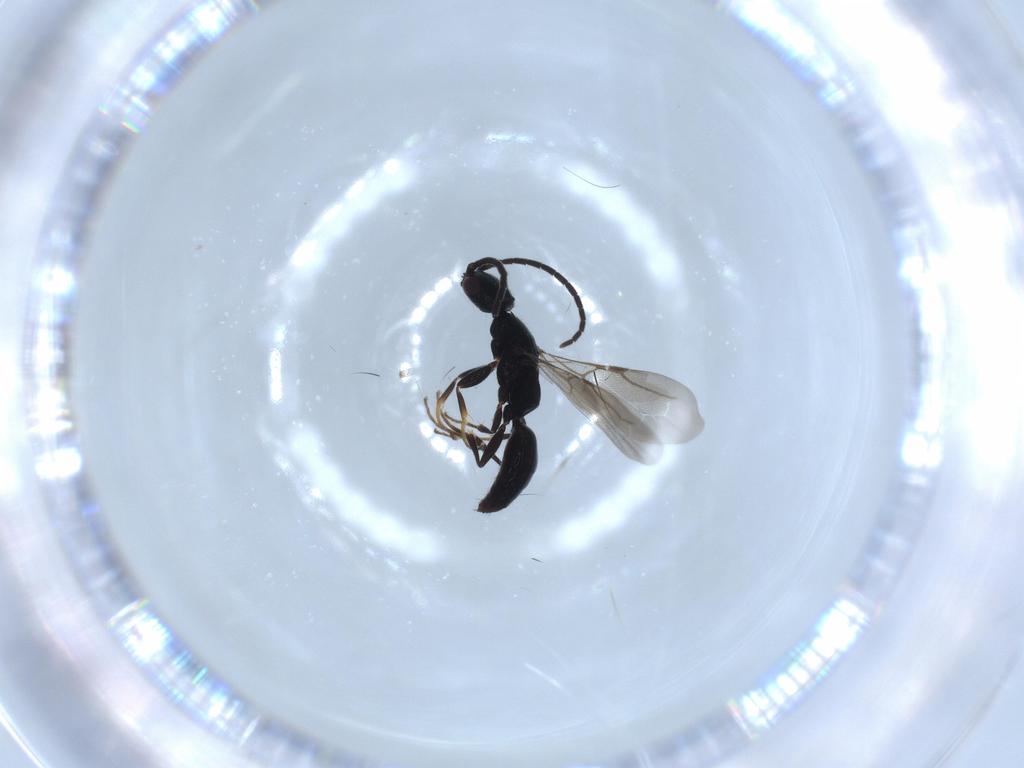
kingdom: Animalia
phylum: Arthropoda
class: Insecta
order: Hymenoptera
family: Bethylidae
